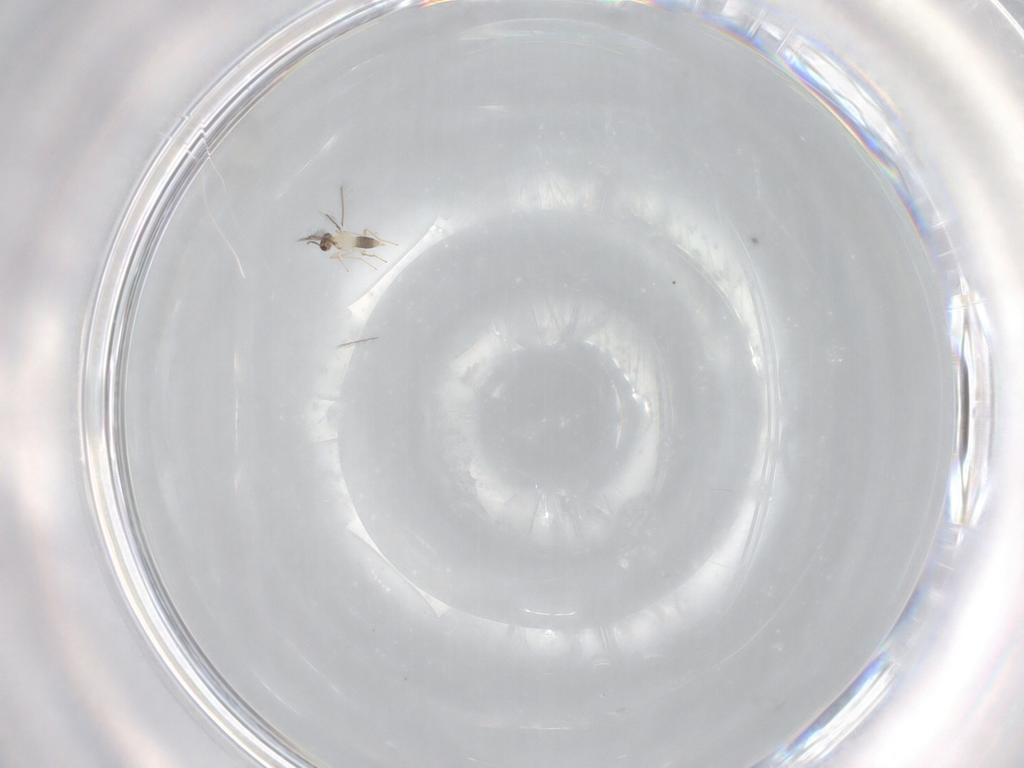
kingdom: Animalia
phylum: Arthropoda
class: Insecta
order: Hymenoptera
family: Mymaridae
